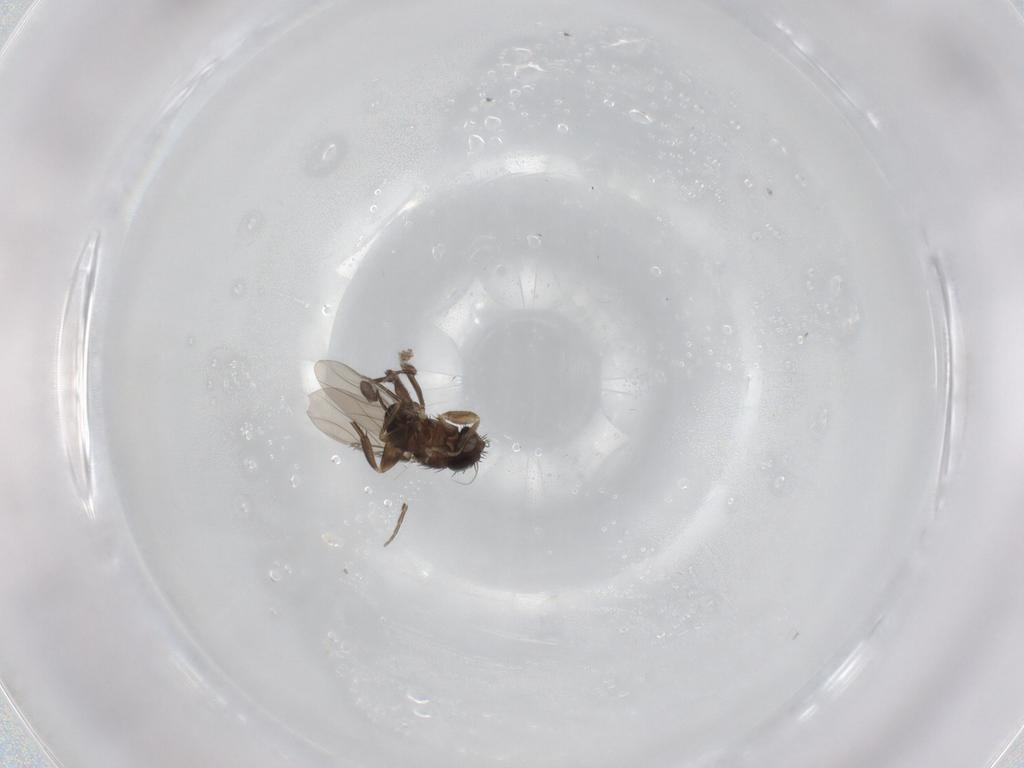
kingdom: Animalia
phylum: Arthropoda
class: Insecta
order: Diptera
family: Phoridae
